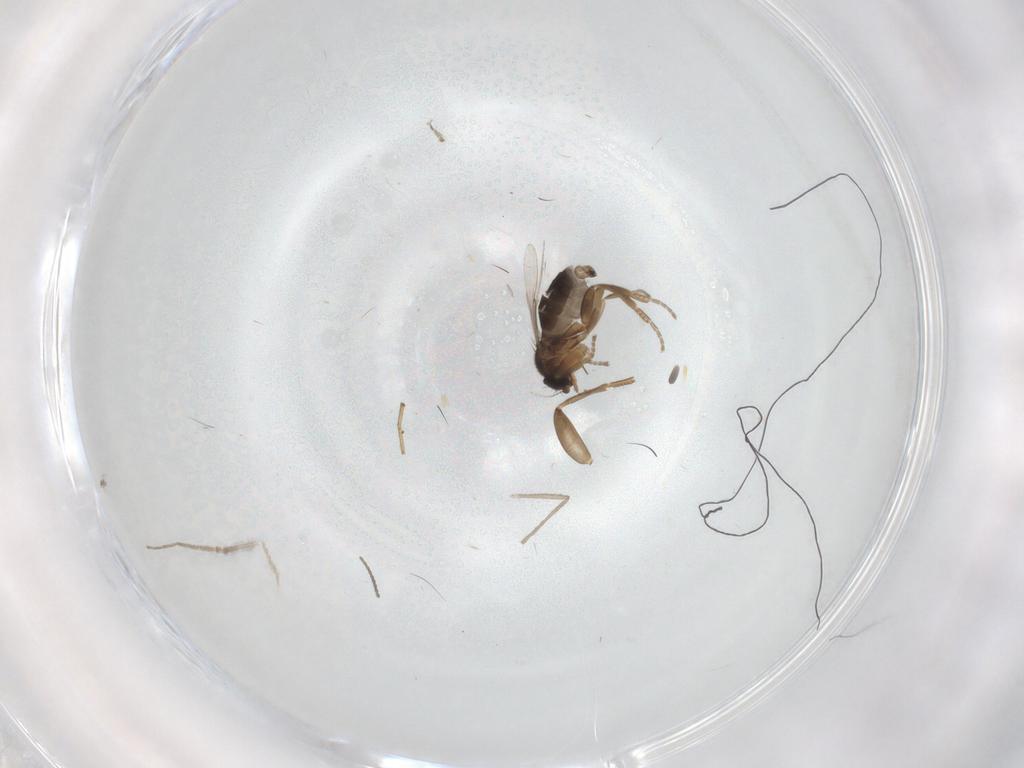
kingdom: Animalia
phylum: Arthropoda
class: Insecta
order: Diptera
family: Phoridae
